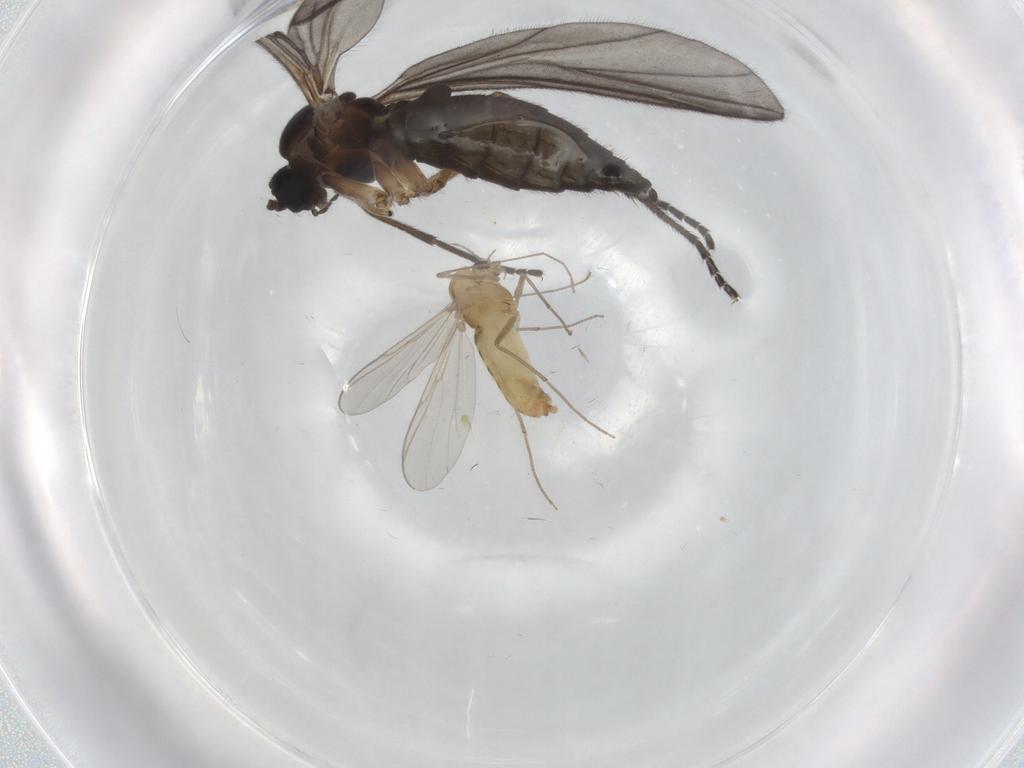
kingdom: Animalia
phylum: Arthropoda
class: Insecta
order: Diptera
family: Sciaridae
